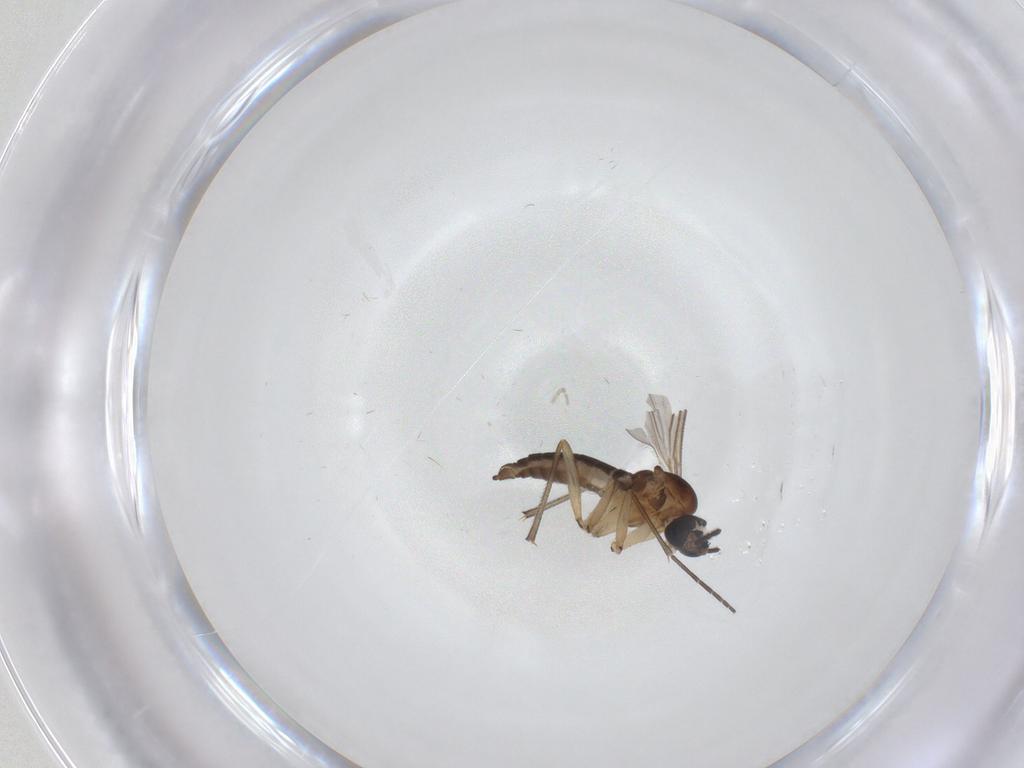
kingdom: Animalia
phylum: Arthropoda
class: Insecta
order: Diptera
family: Sciaridae
